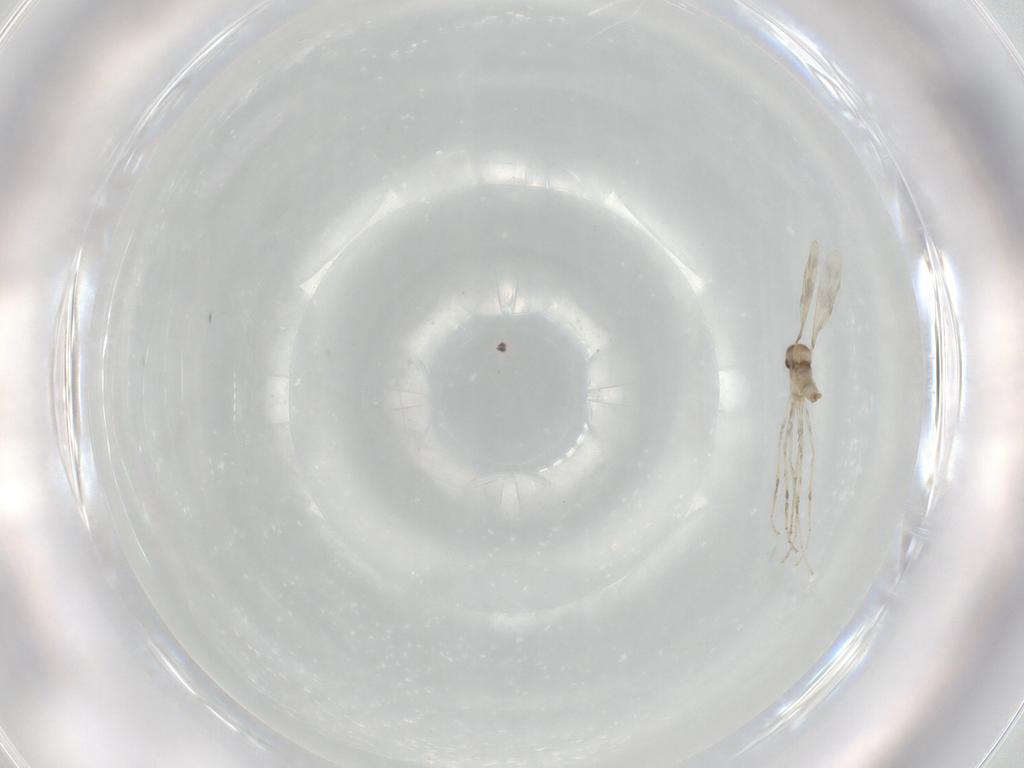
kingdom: Animalia
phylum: Arthropoda
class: Insecta
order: Diptera
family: Cecidomyiidae
